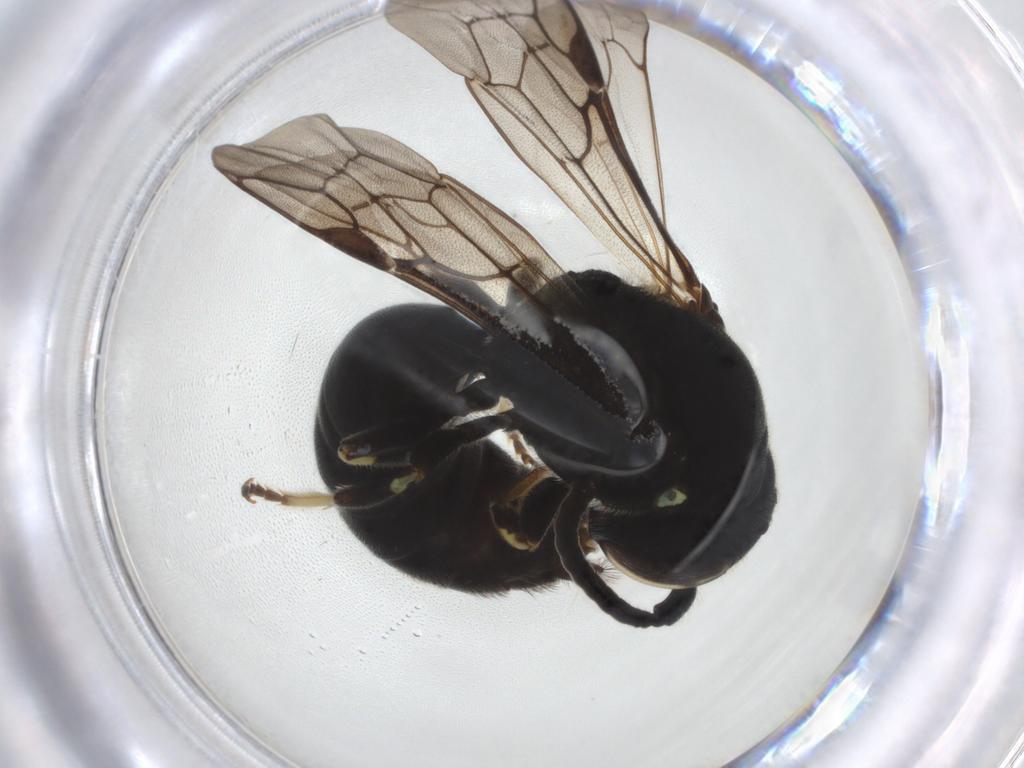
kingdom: Animalia
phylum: Arthropoda
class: Insecta
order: Hymenoptera
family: Colletidae
